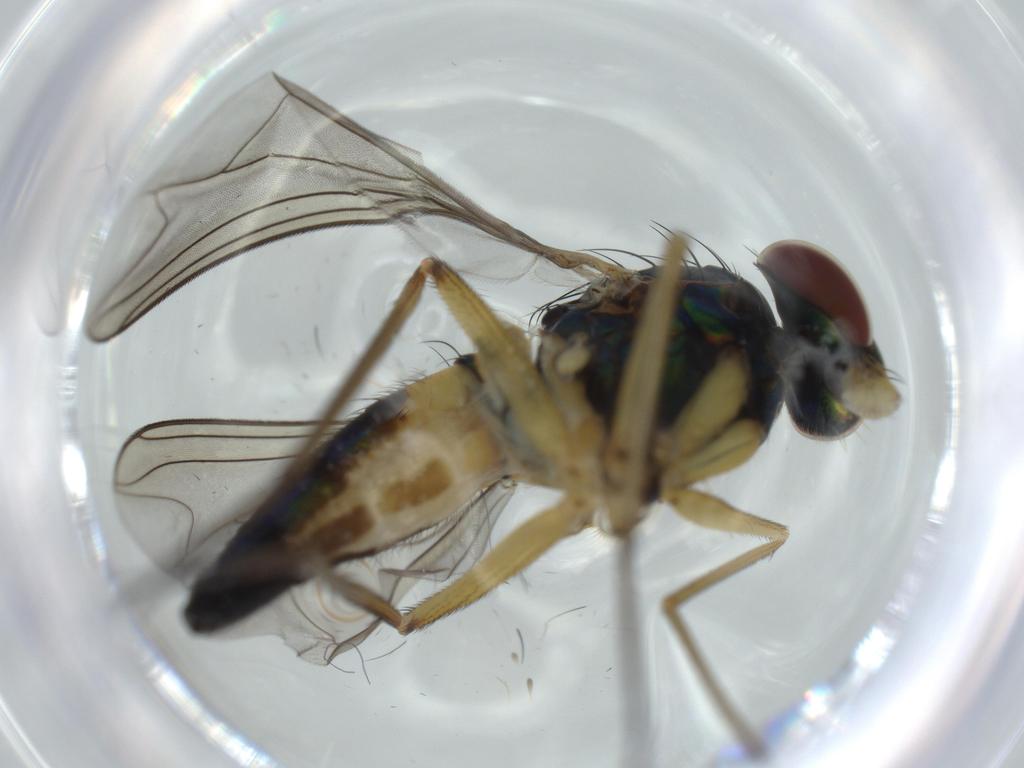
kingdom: Animalia
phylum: Arthropoda
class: Insecta
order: Diptera
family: Dolichopodidae
